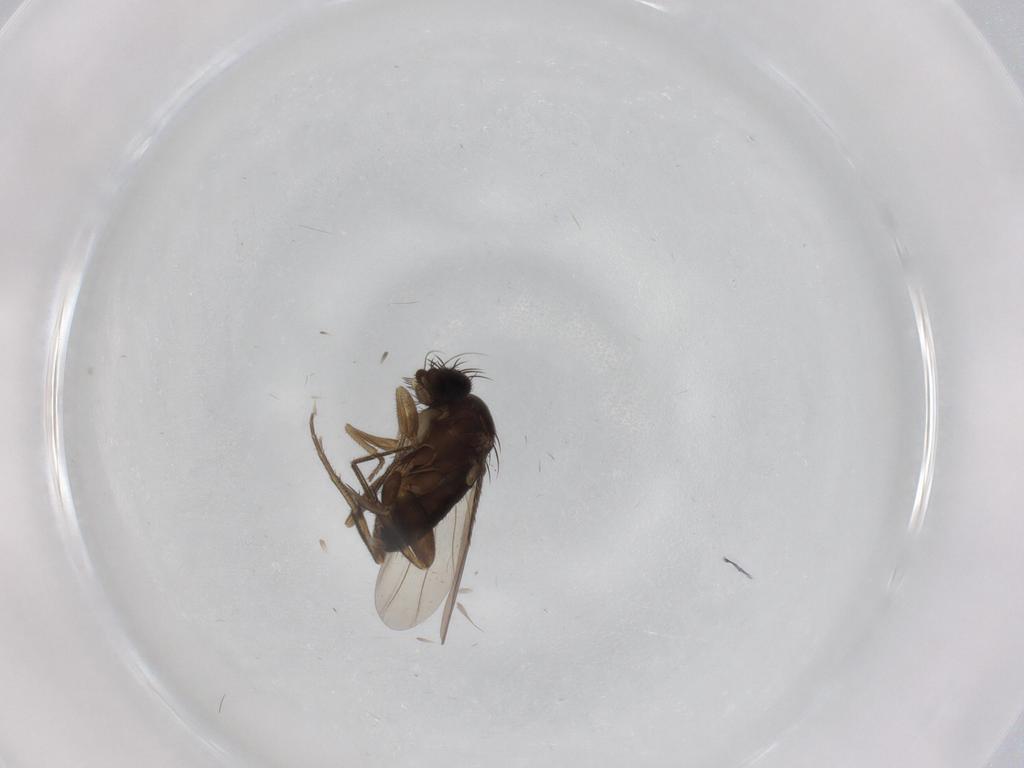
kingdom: Animalia
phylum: Arthropoda
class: Insecta
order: Diptera
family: Phoridae
